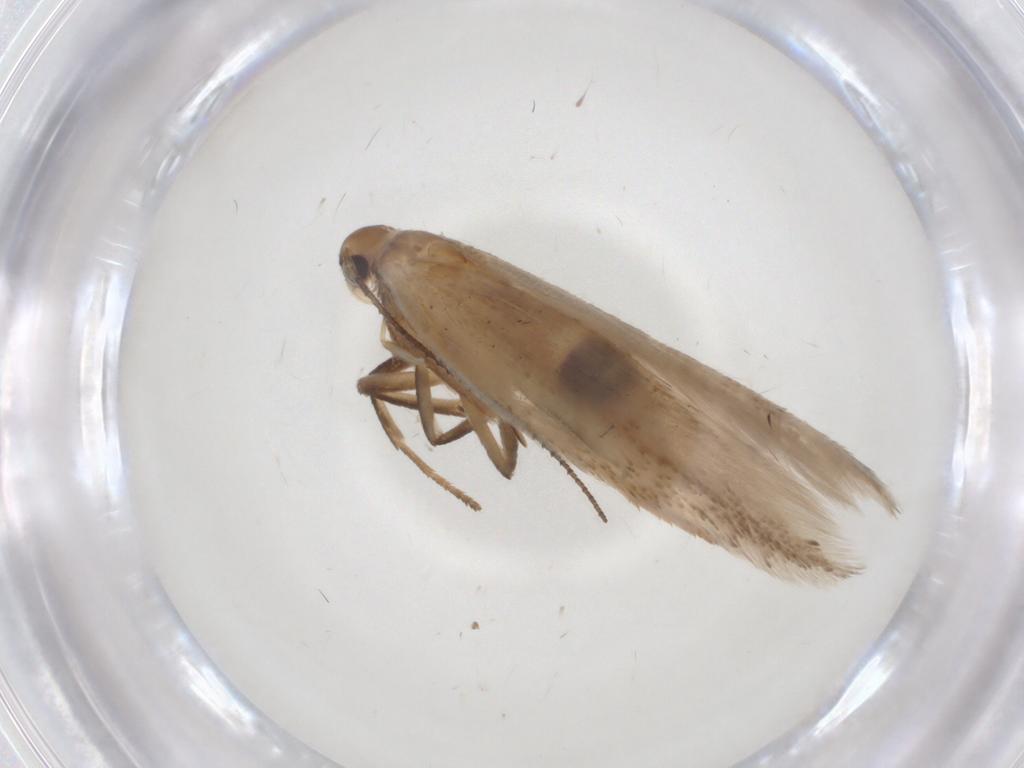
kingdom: Animalia
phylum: Arthropoda
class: Insecta
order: Lepidoptera
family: Gelechiidae
